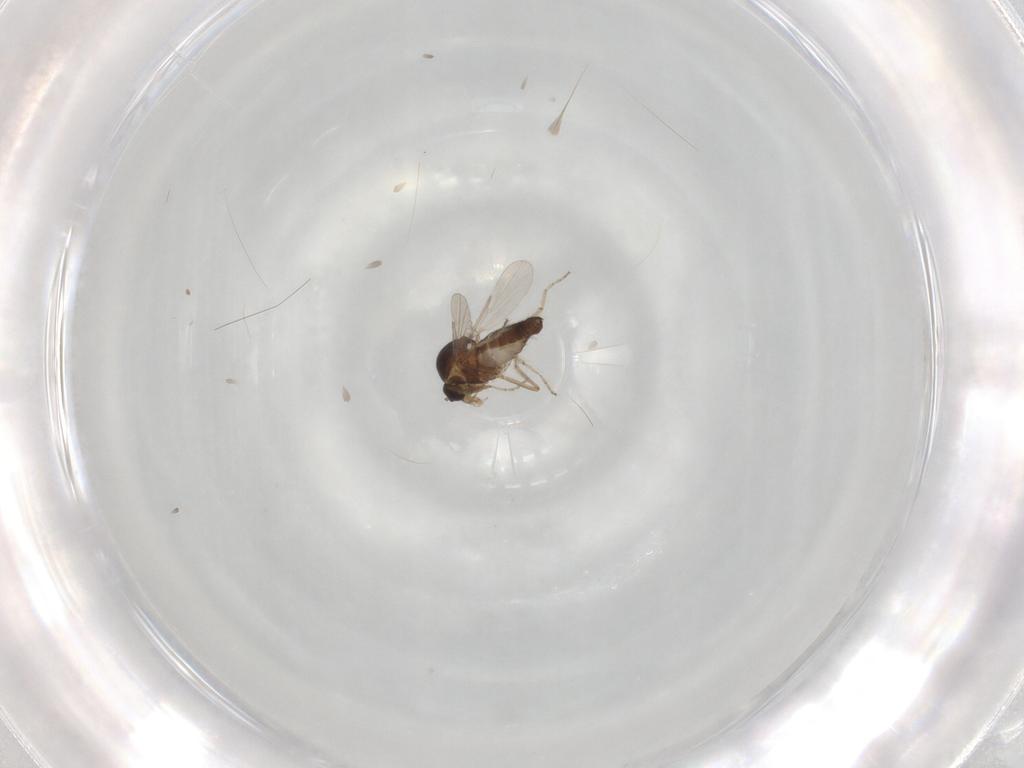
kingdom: Animalia
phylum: Arthropoda
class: Insecta
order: Diptera
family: Ceratopogonidae
